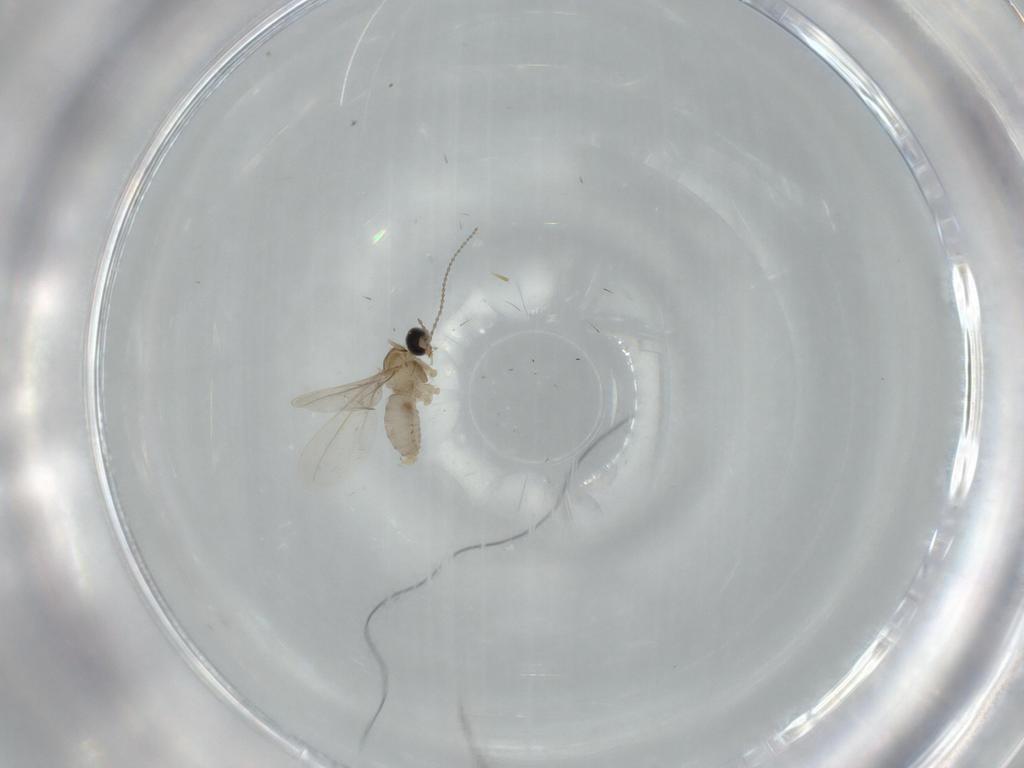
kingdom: Animalia
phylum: Arthropoda
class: Insecta
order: Diptera
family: Cecidomyiidae
